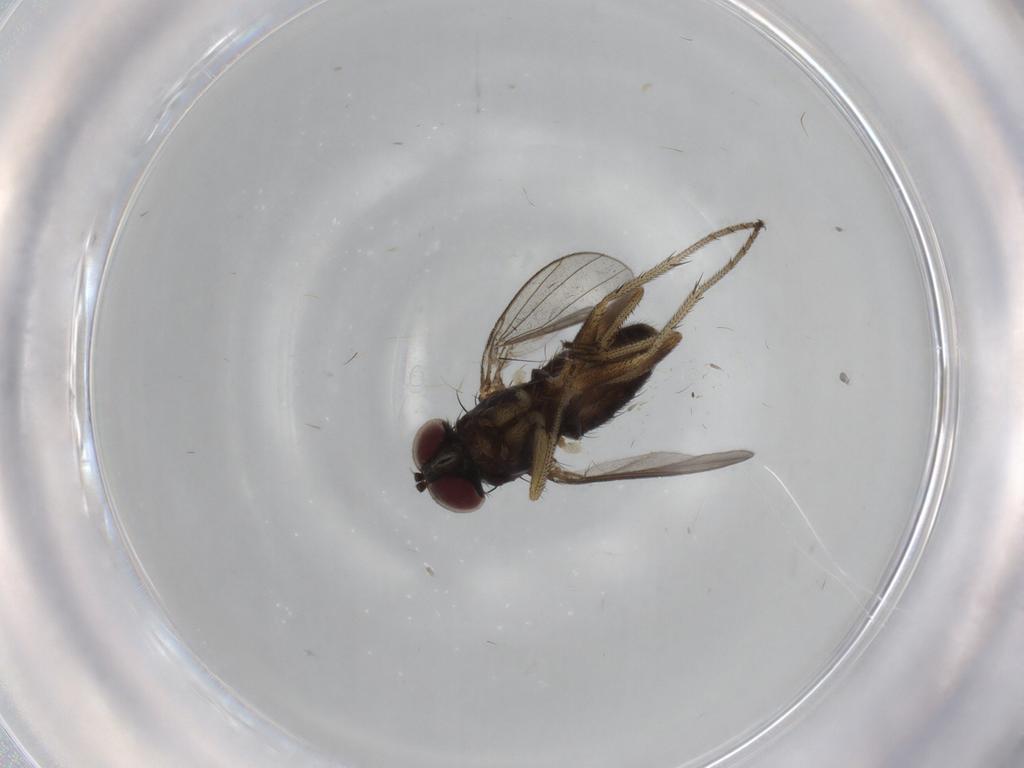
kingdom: Animalia
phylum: Arthropoda
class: Insecta
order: Diptera
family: Dolichopodidae
